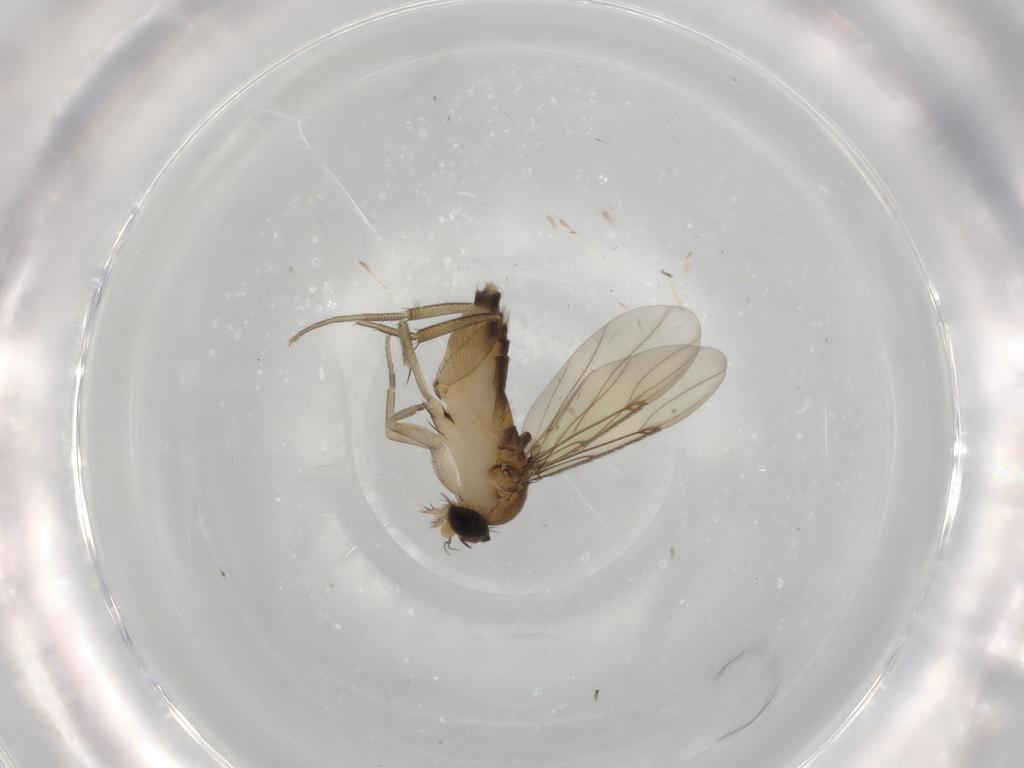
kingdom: Animalia
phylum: Arthropoda
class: Insecta
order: Diptera
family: Phoridae
